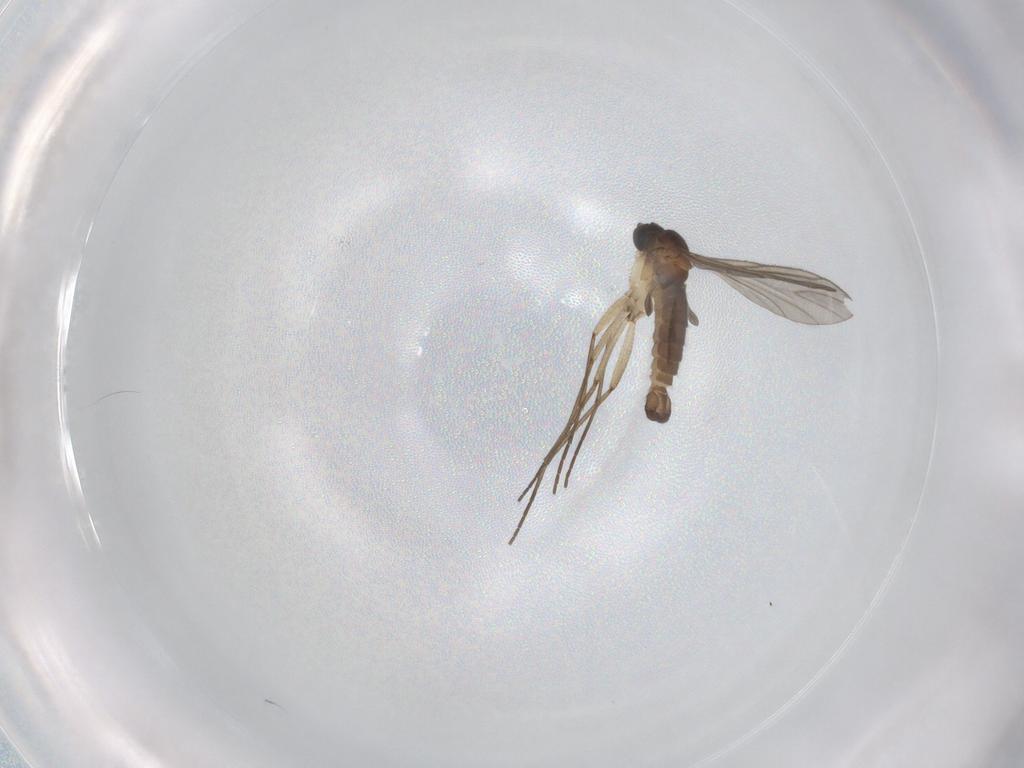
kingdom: Animalia
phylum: Arthropoda
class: Insecta
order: Diptera
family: Sciaridae
